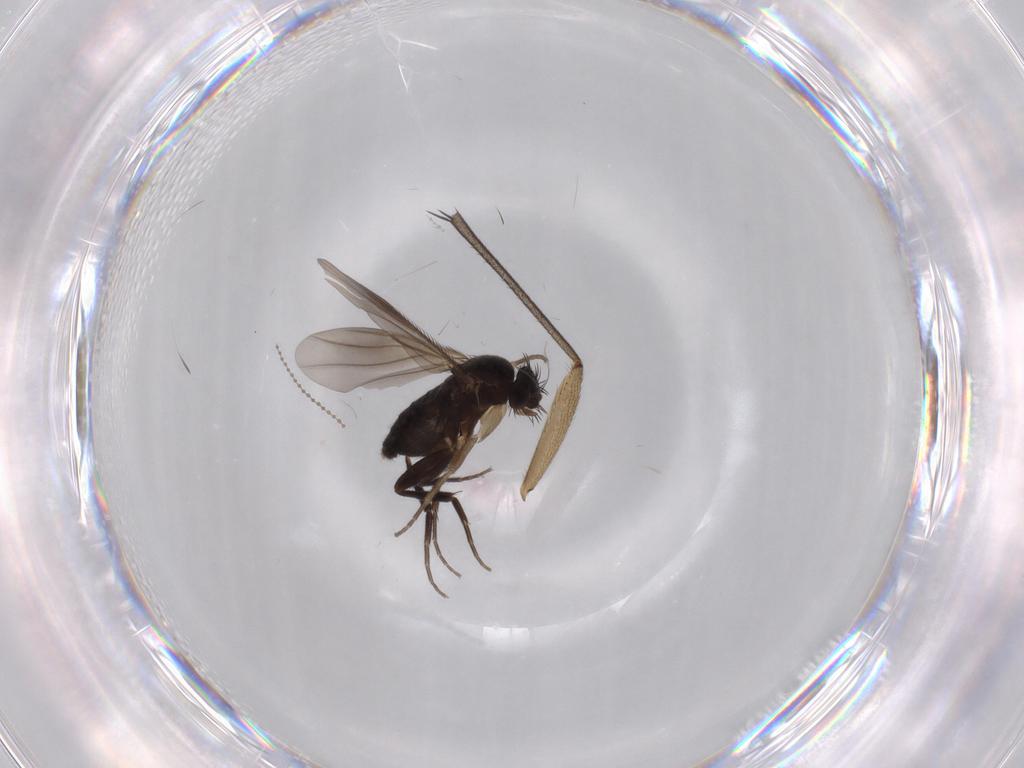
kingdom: Animalia
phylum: Arthropoda
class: Insecta
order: Diptera
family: Phoridae
